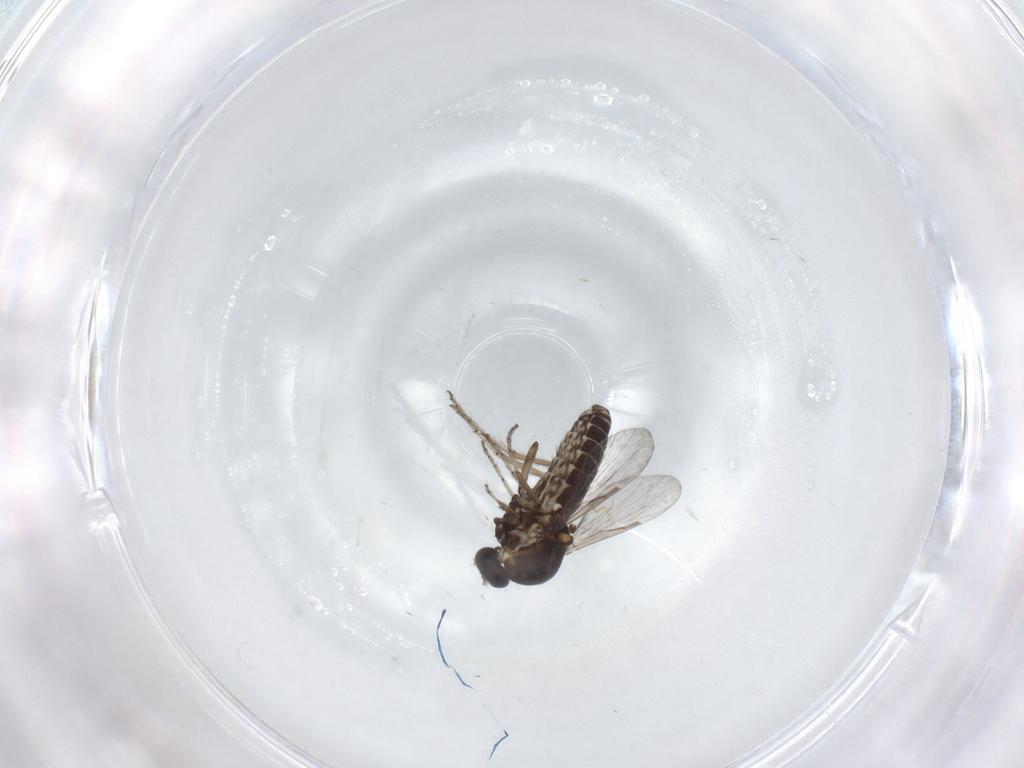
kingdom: Animalia
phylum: Arthropoda
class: Insecta
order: Diptera
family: Ceratopogonidae
